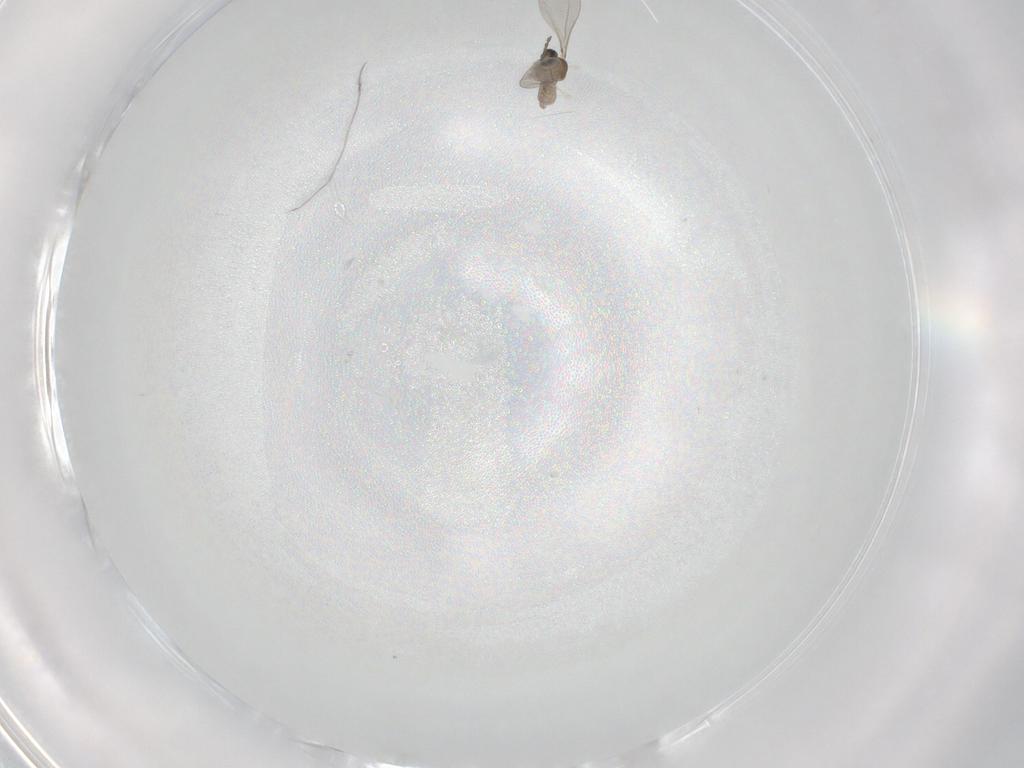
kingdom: Animalia
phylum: Arthropoda
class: Insecta
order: Diptera
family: Cecidomyiidae
